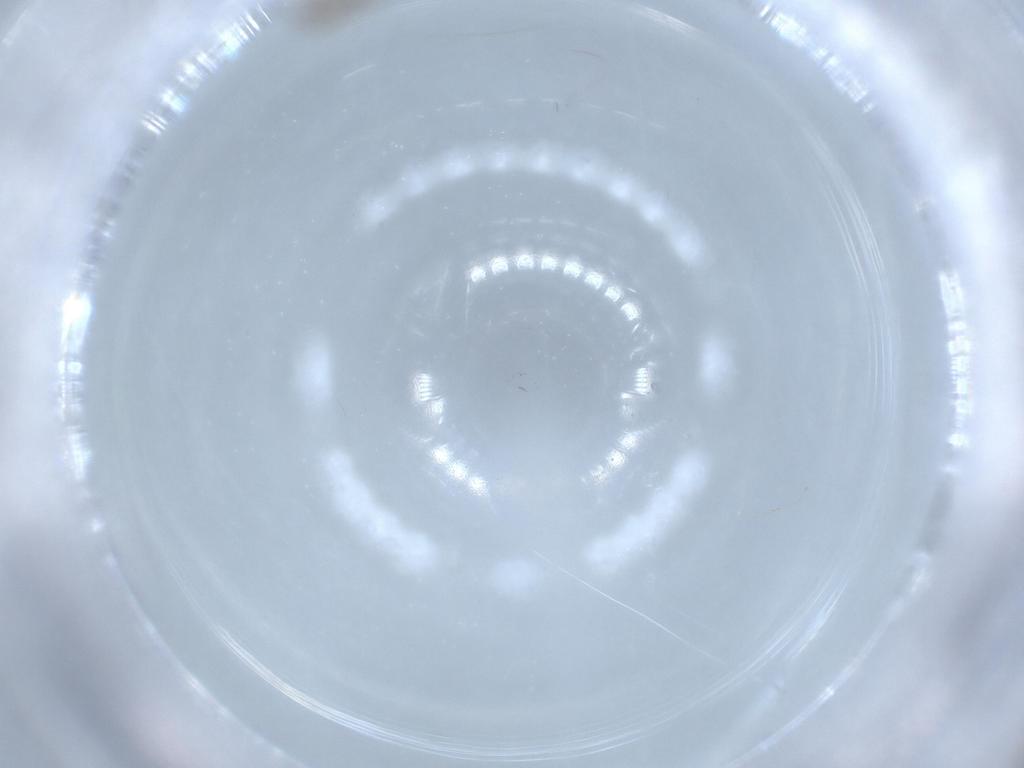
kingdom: Animalia
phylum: Arthropoda
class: Insecta
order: Diptera
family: Cecidomyiidae
